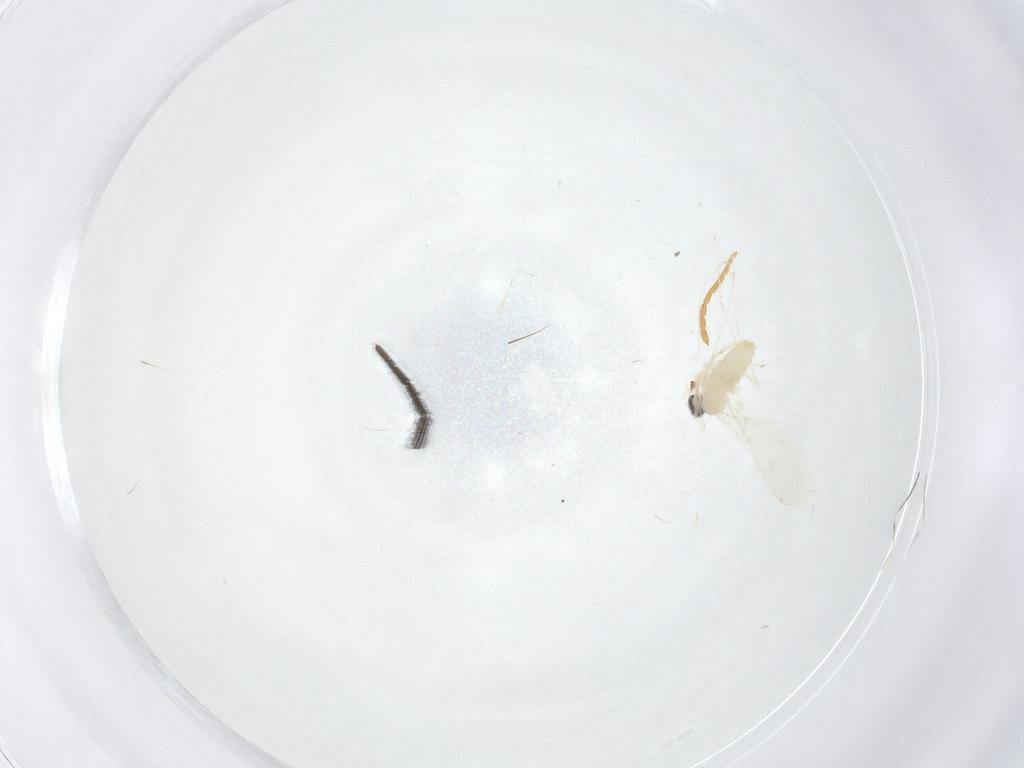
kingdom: Animalia
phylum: Arthropoda
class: Insecta
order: Diptera
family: Cecidomyiidae
